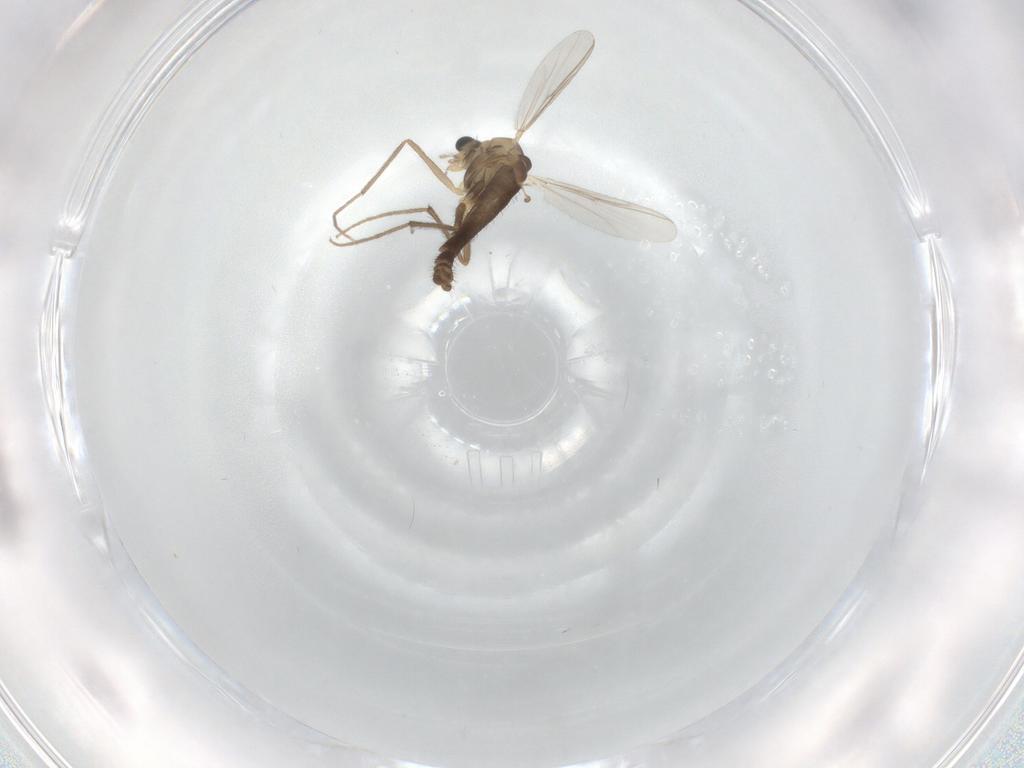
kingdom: Animalia
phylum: Arthropoda
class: Insecta
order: Diptera
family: Chironomidae
